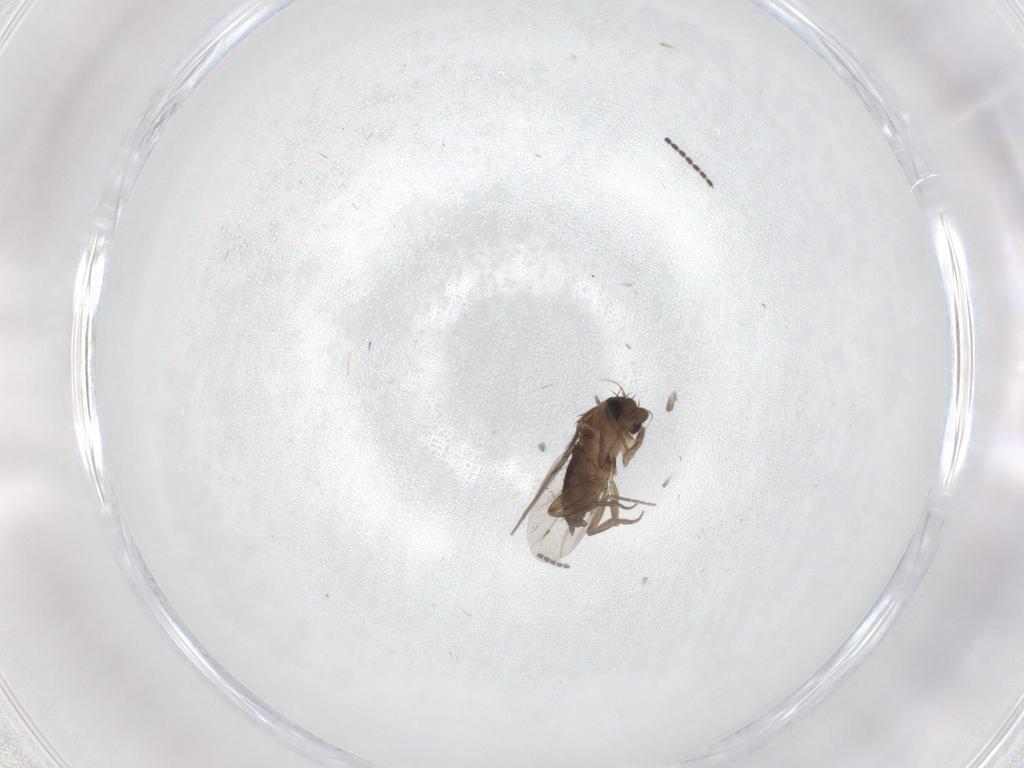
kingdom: Animalia
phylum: Arthropoda
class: Insecta
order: Diptera
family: Phoridae
